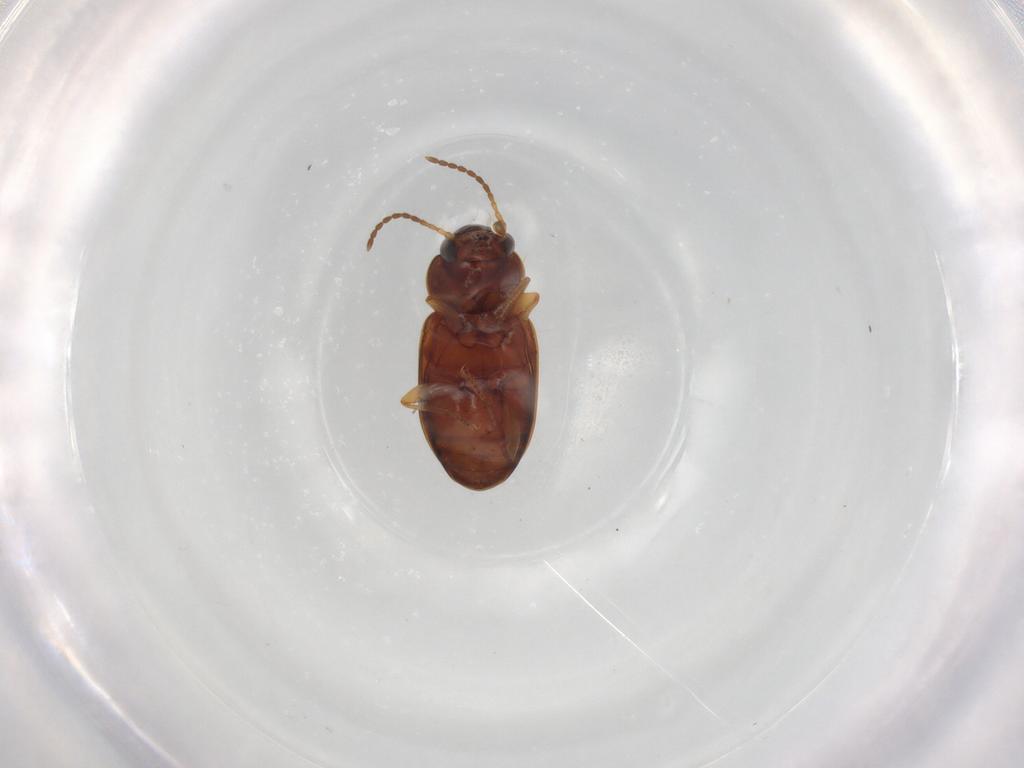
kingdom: Animalia
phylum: Arthropoda
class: Insecta
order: Coleoptera
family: Carabidae
